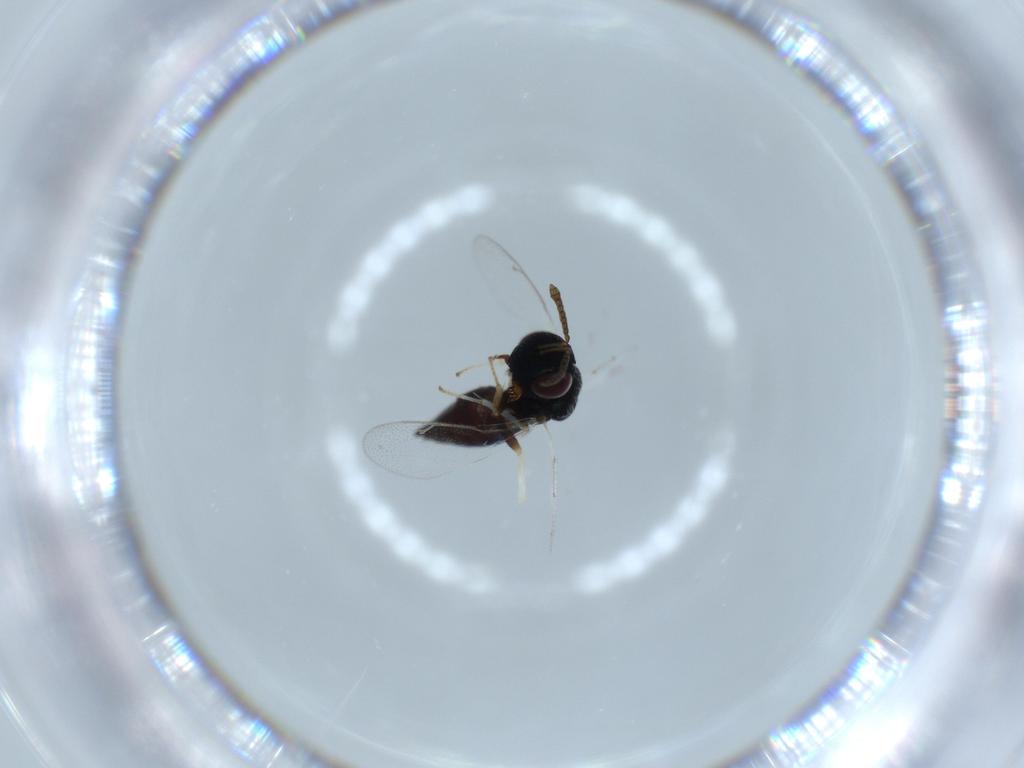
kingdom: Animalia
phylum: Arthropoda
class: Insecta
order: Hymenoptera
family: Pteromalidae
